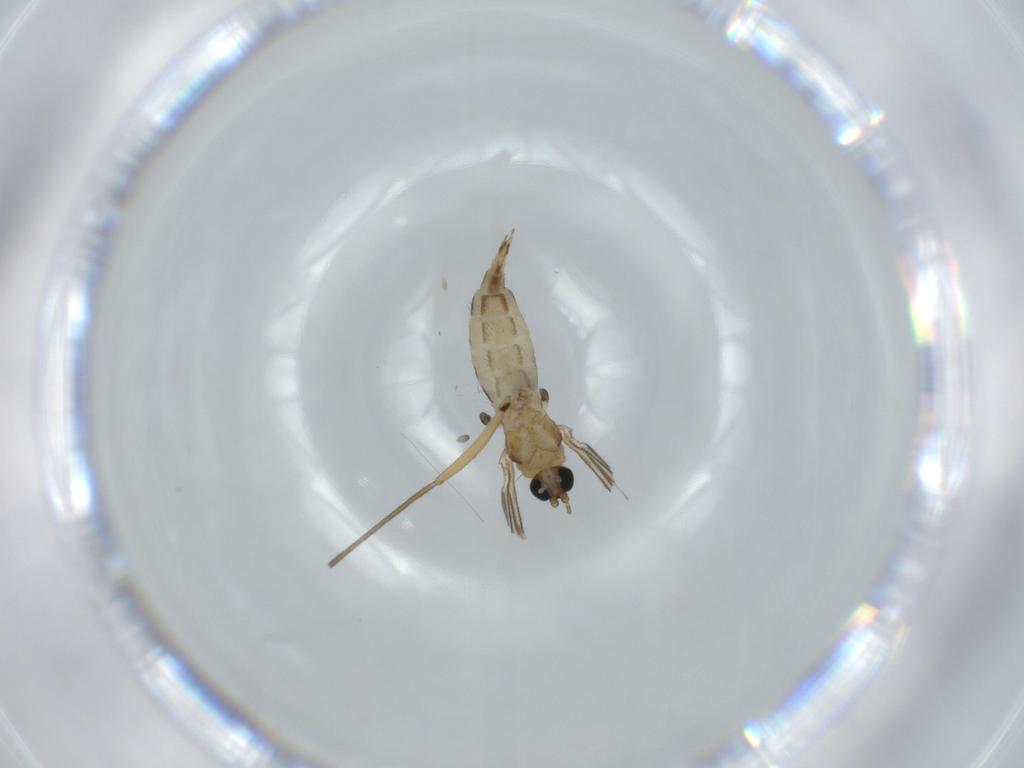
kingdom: Animalia
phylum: Arthropoda
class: Insecta
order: Diptera
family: Sciaridae
